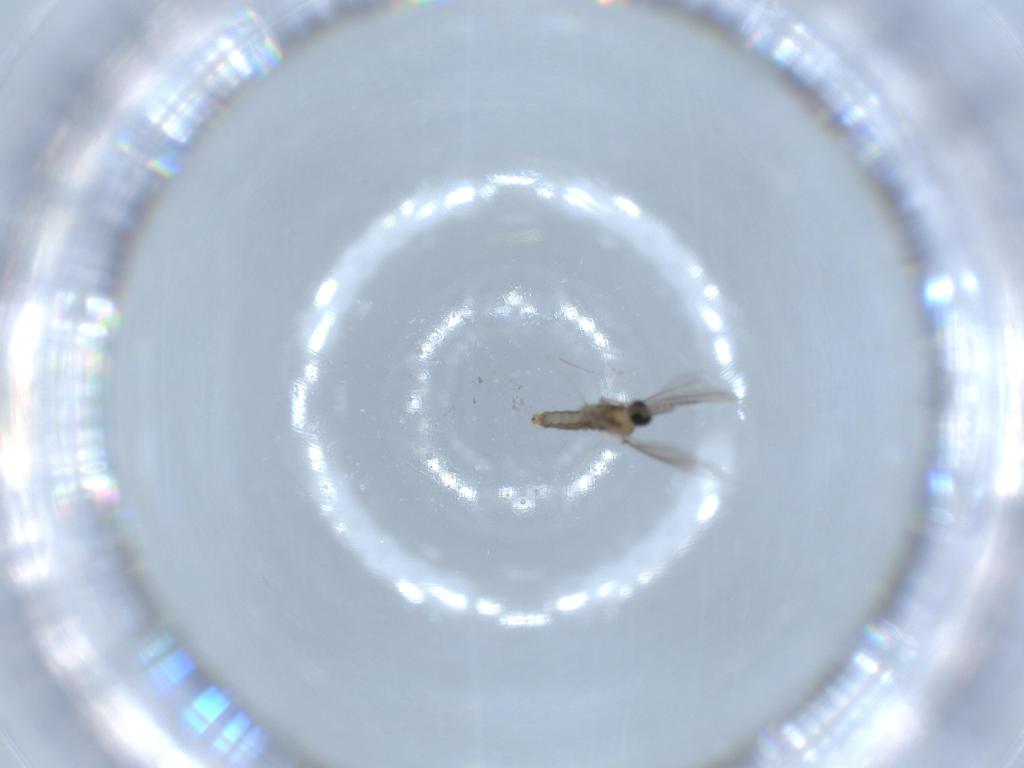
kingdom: Animalia
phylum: Arthropoda
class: Insecta
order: Diptera
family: Cecidomyiidae
